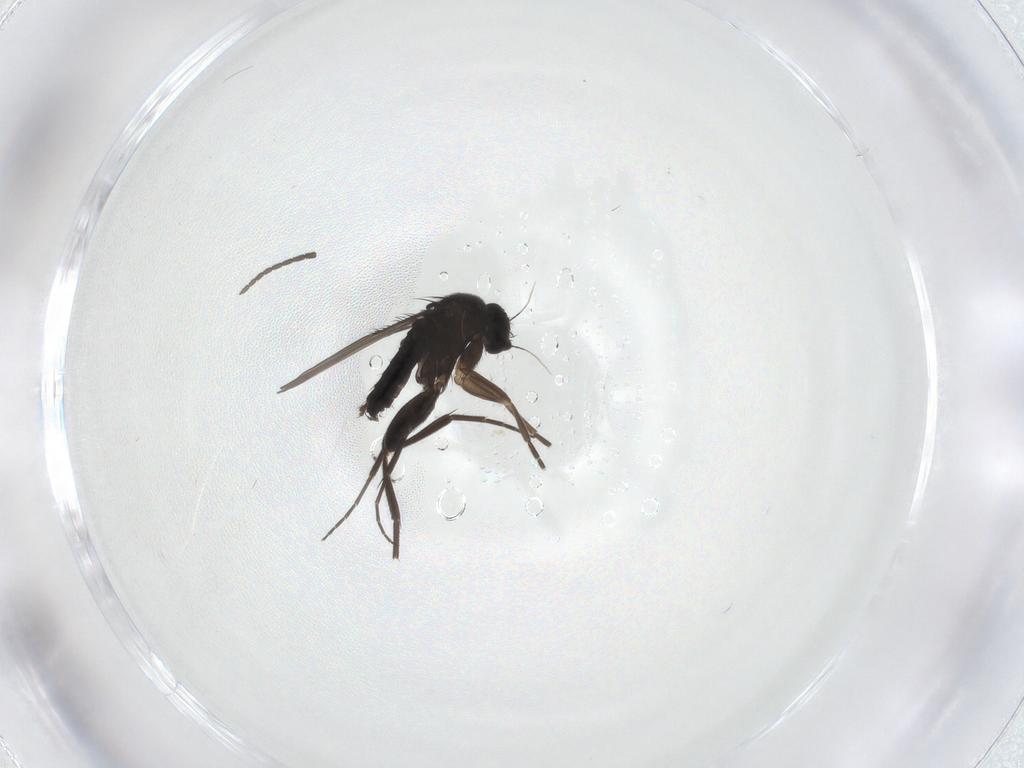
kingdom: Animalia
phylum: Arthropoda
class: Insecta
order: Diptera
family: Phoridae
